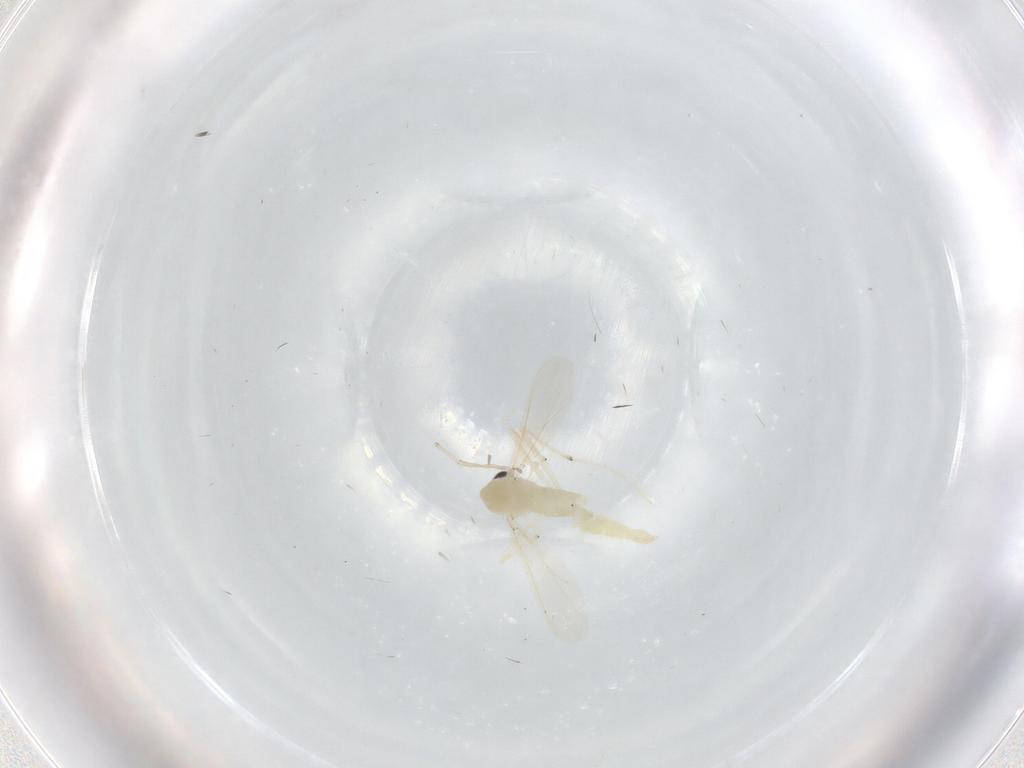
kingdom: Animalia
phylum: Arthropoda
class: Insecta
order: Diptera
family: Chironomidae
